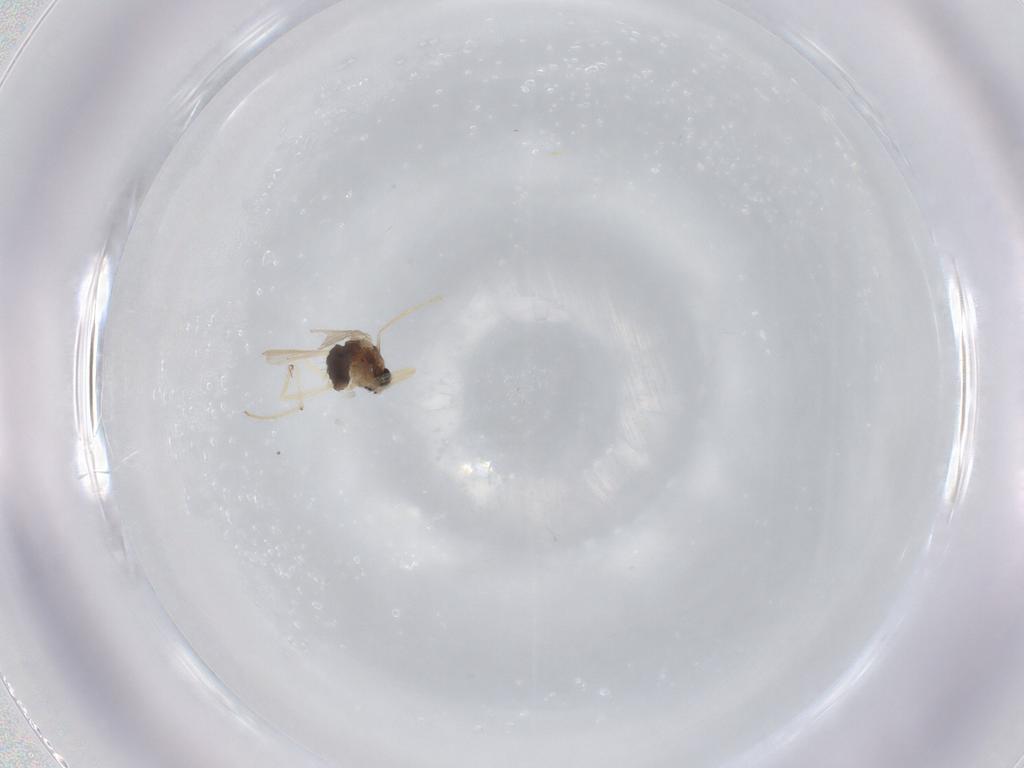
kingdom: Animalia
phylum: Arthropoda
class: Insecta
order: Diptera
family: Chironomidae
